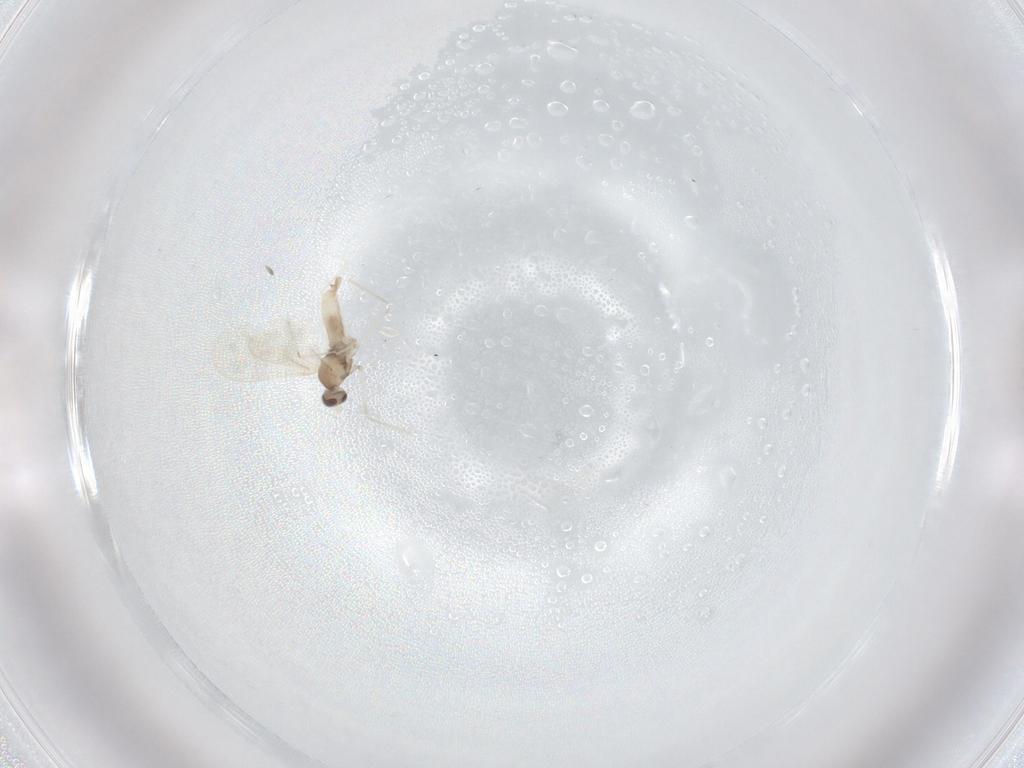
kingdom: Animalia
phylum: Arthropoda
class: Insecta
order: Diptera
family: Cecidomyiidae
